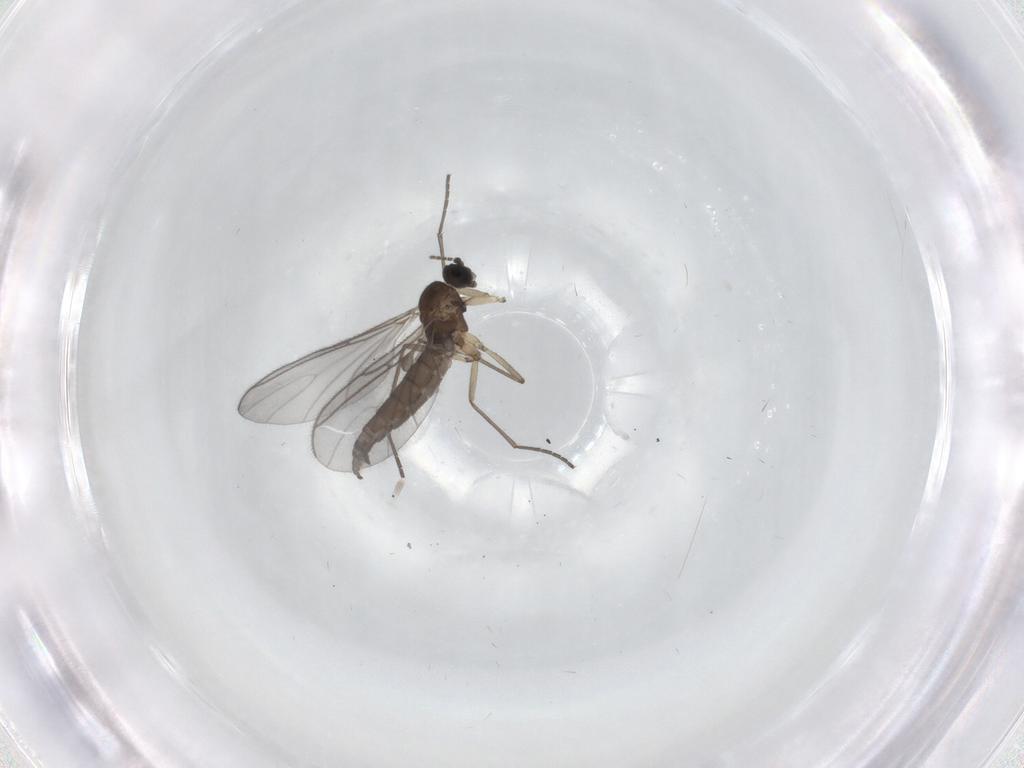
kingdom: Animalia
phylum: Arthropoda
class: Insecta
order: Diptera
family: Sciaridae
